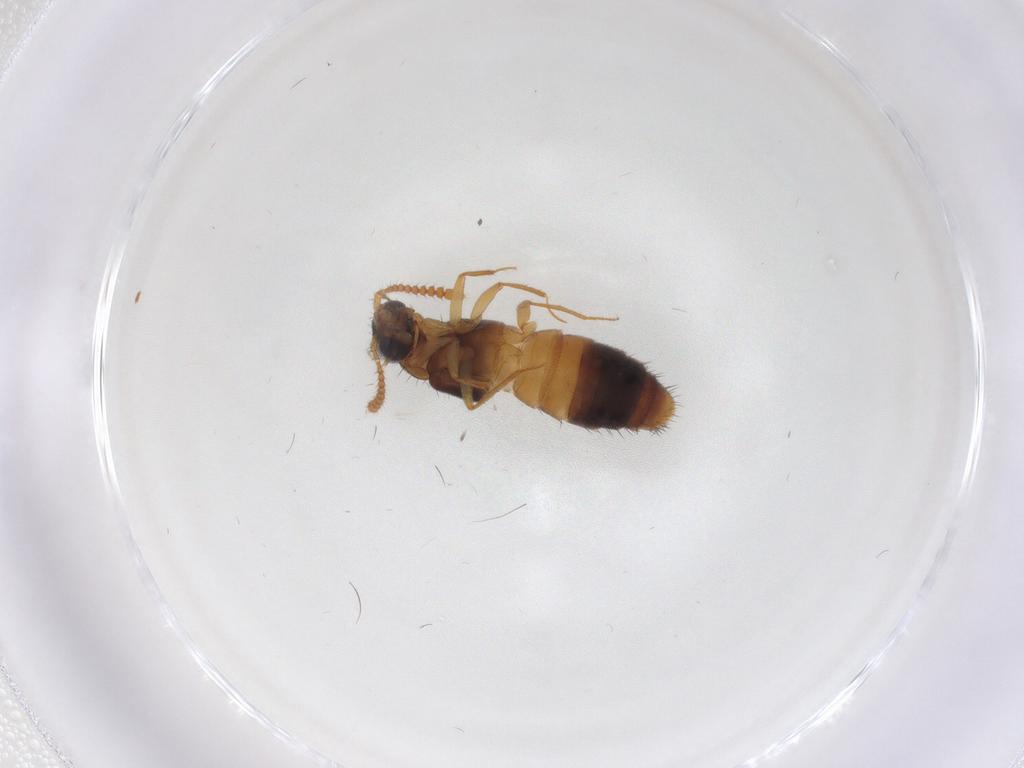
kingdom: Animalia
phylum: Arthropoda
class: Insecta
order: Coleoptera
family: Staphylinidae
